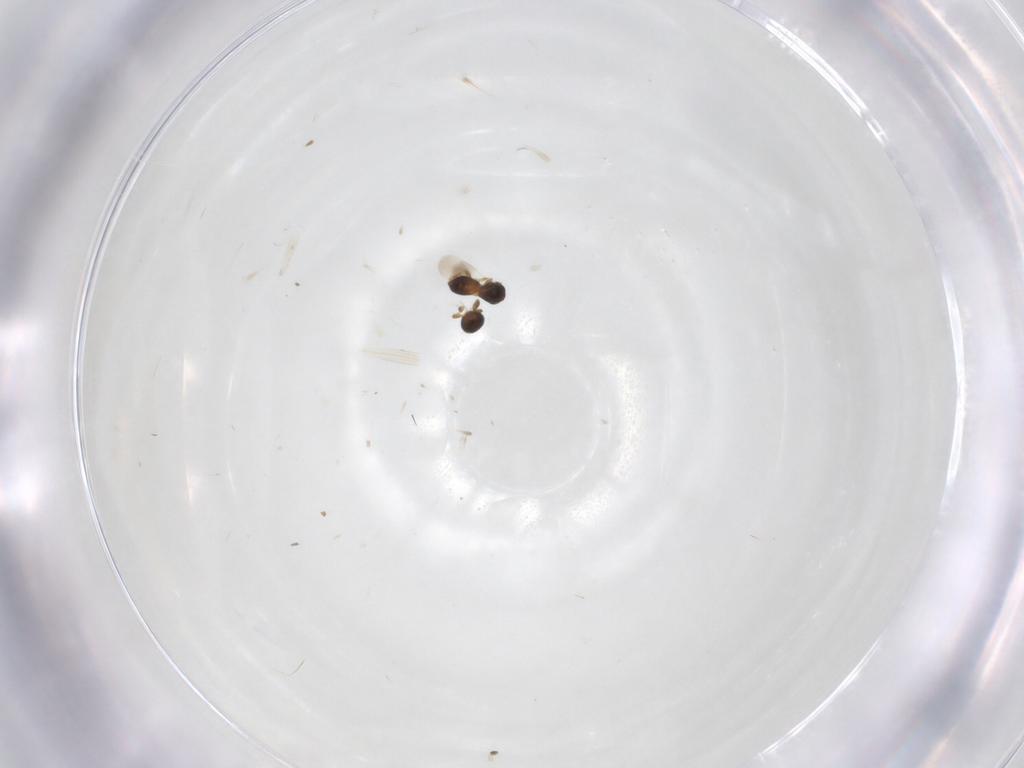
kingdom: Animalia
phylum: Arthropoda
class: Insecta
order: Hymenoptera
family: Platygastridae
